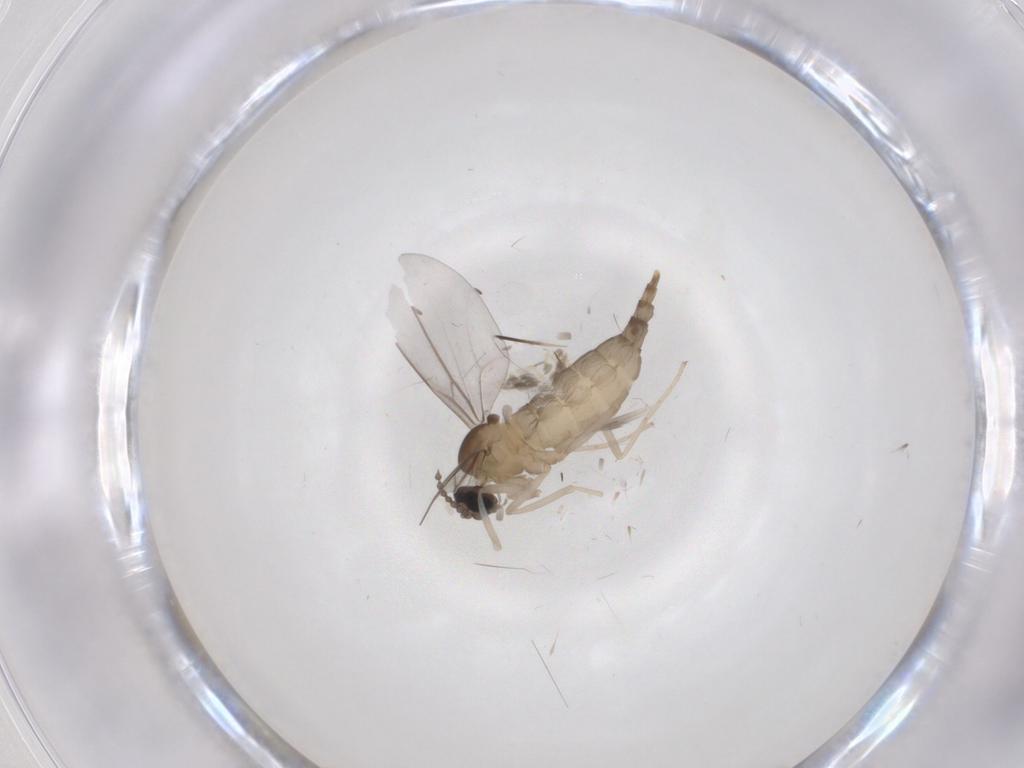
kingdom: Animalia
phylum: Arthropoda
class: Insecta
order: Diptera
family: Cecidomyiidae
